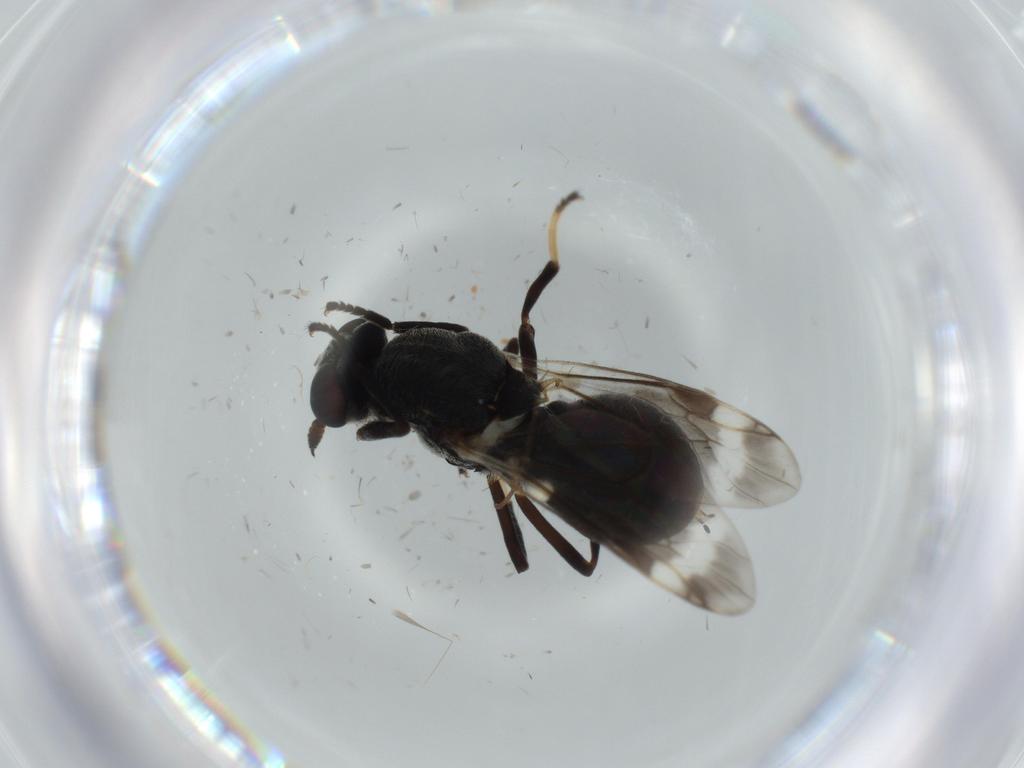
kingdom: Animalia
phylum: Arthropoda
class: Insecta
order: Diptera
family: Stratiomyidae
